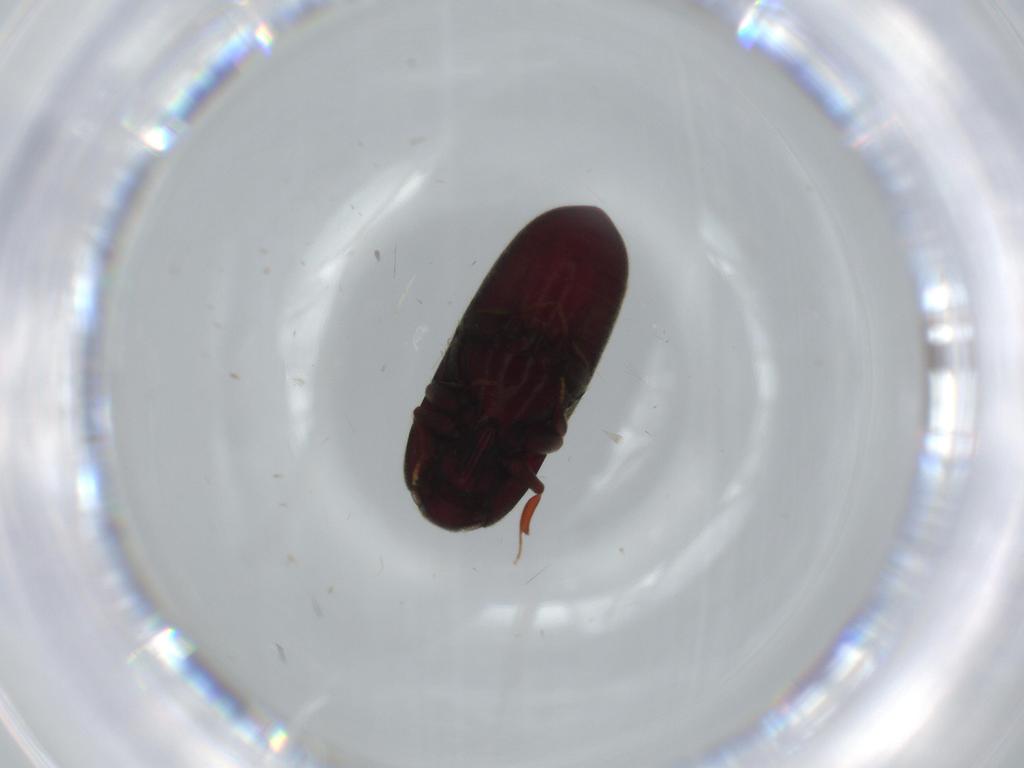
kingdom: Animalia
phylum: Arthropoda
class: Insecta
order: Coleoptera
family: Throscidae
